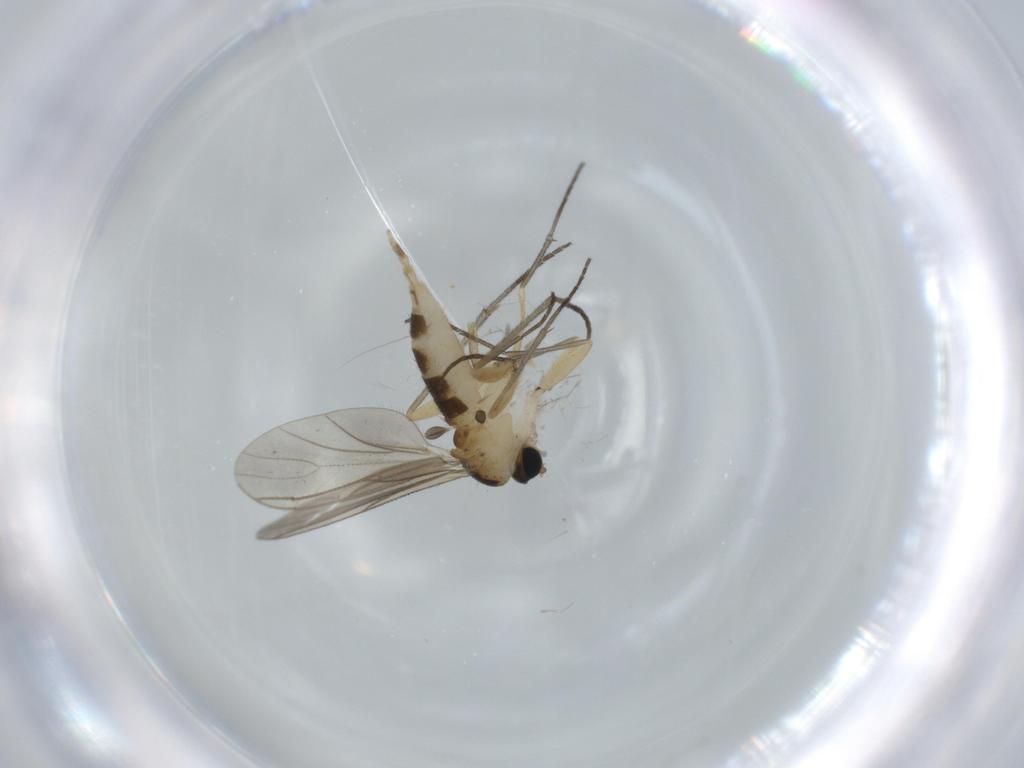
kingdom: Animalia
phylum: Arthropoda
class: Insecta
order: Diptera
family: Sciaridae
